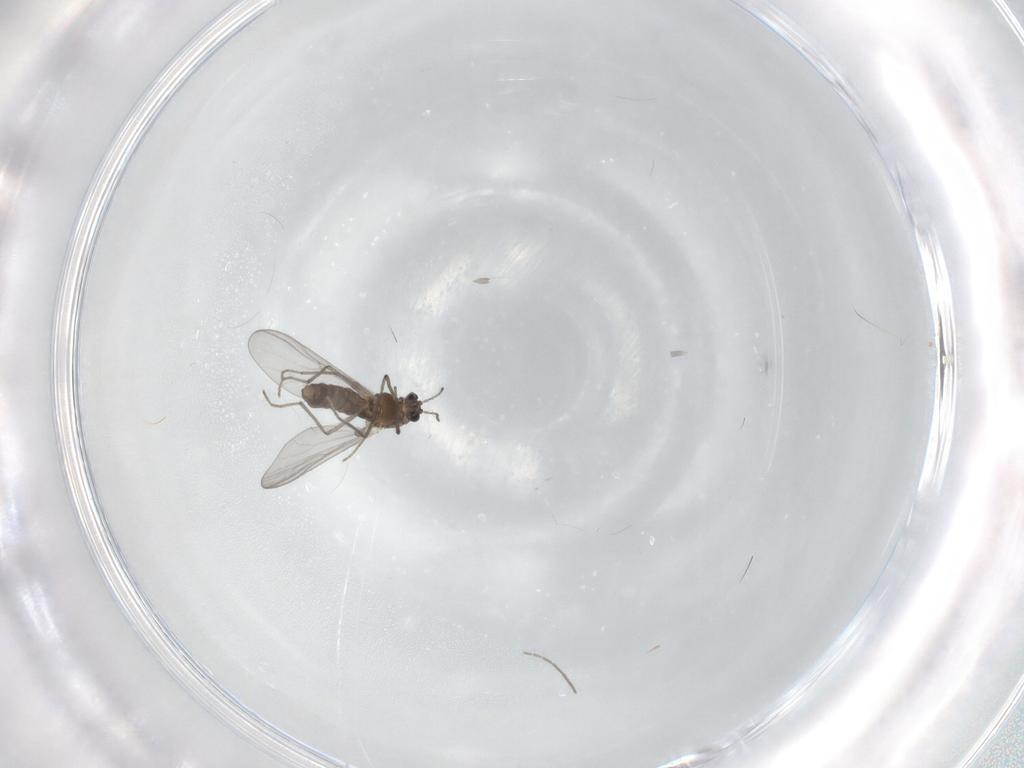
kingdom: Animalia
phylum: Arthropoda
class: Insecta
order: Diptera
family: Chironomidae
